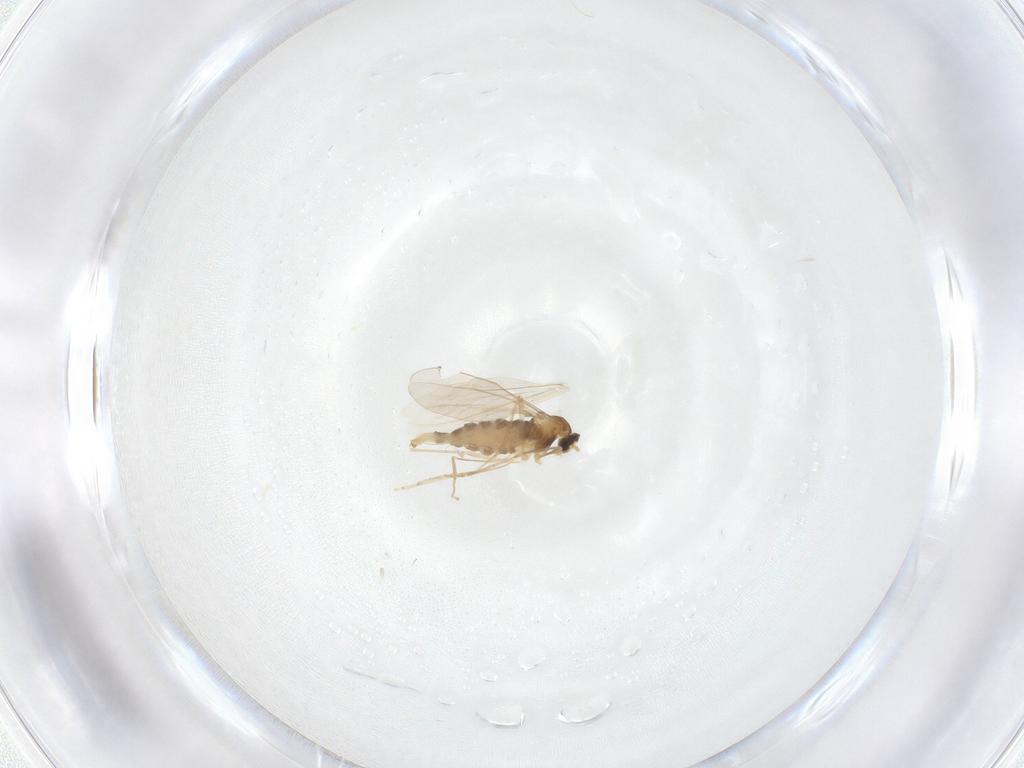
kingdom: Animalia
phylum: Arthropoda
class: Insecta
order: Diptera
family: Cecidomyiidae
